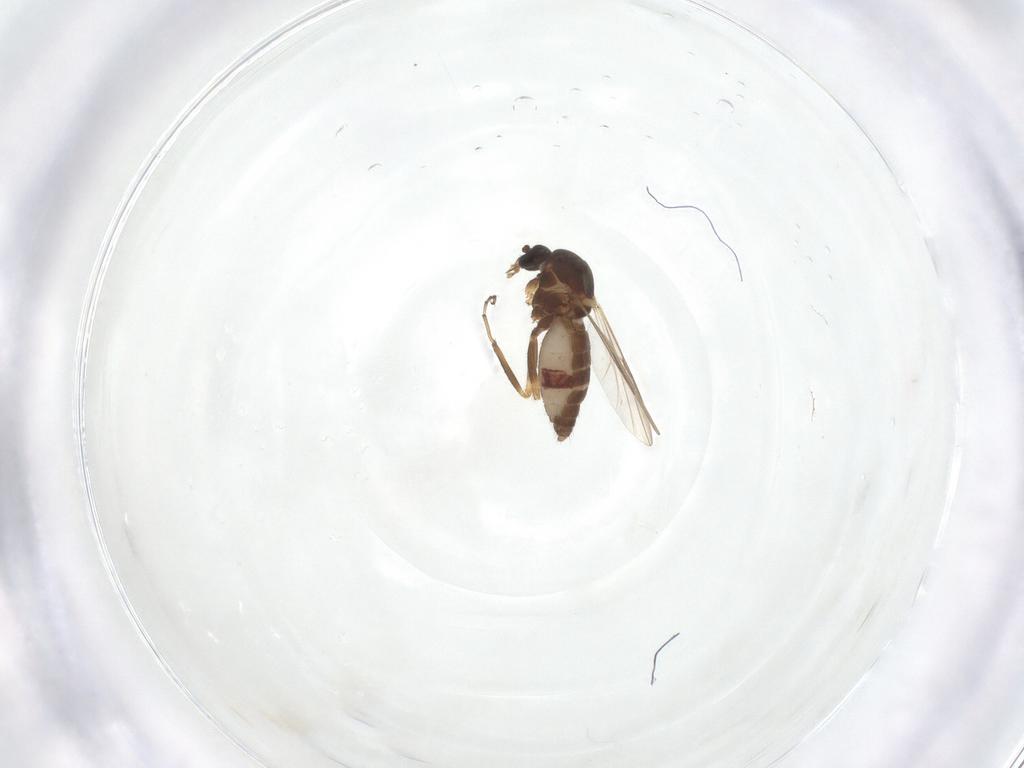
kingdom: Animalia
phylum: Arthropoda
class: Insecta
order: Diptera
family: Ceratopogonidae
